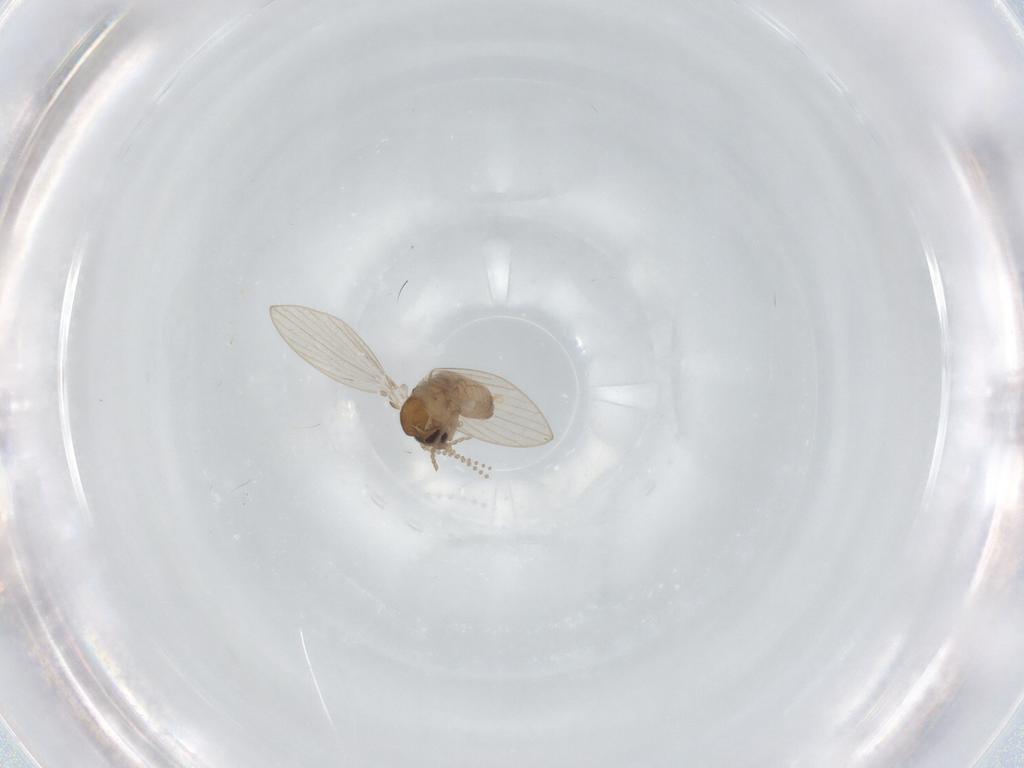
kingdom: Animalia
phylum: Arthropoda
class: Insecta
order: Diptera
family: Psychodidae
